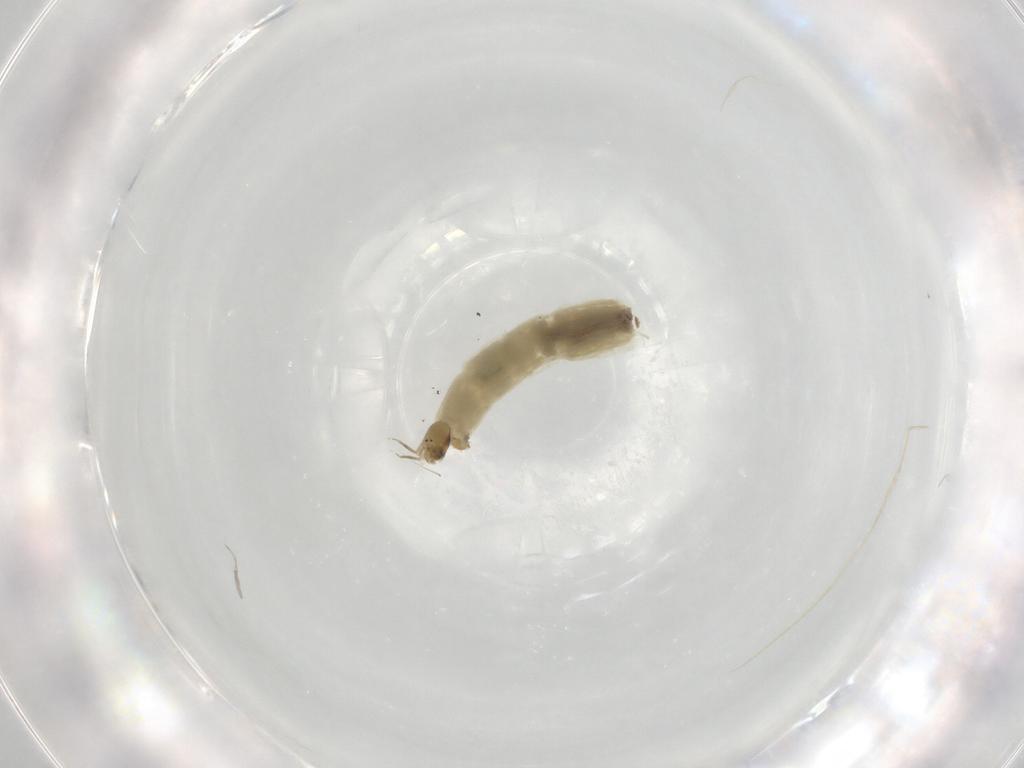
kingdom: Animalia
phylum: Arthropoda
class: Insecta
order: Diptera
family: Chironomidae
